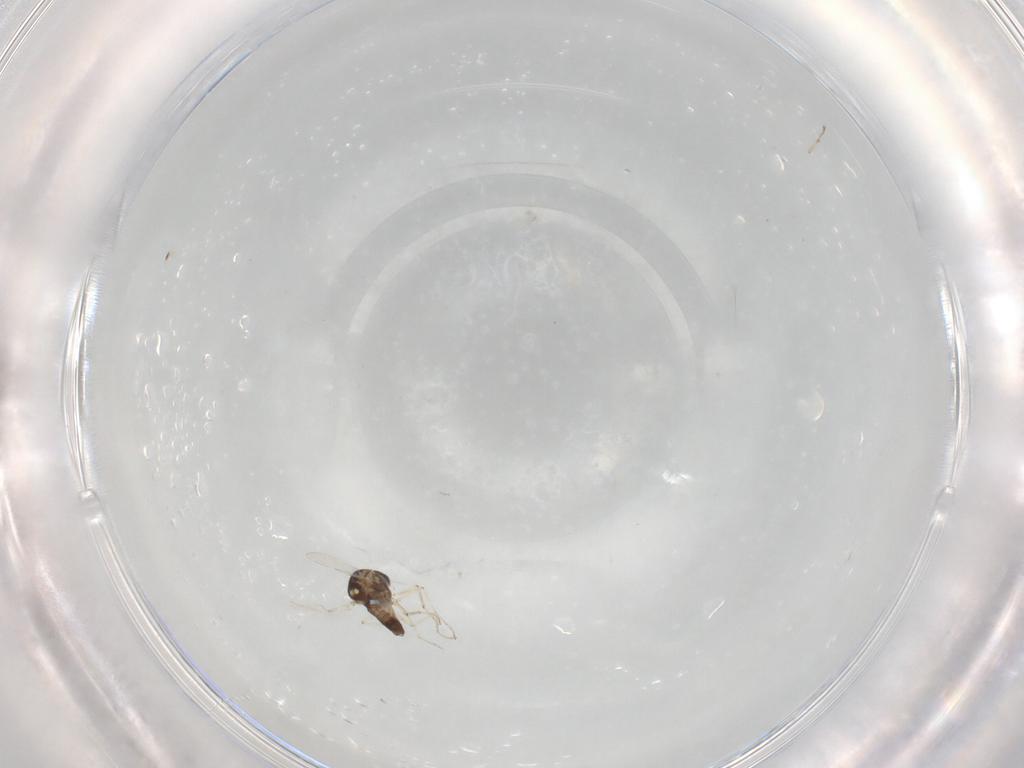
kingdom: Animalia
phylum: Arthropoda
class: Insecta
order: Diptera
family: Phoridae
